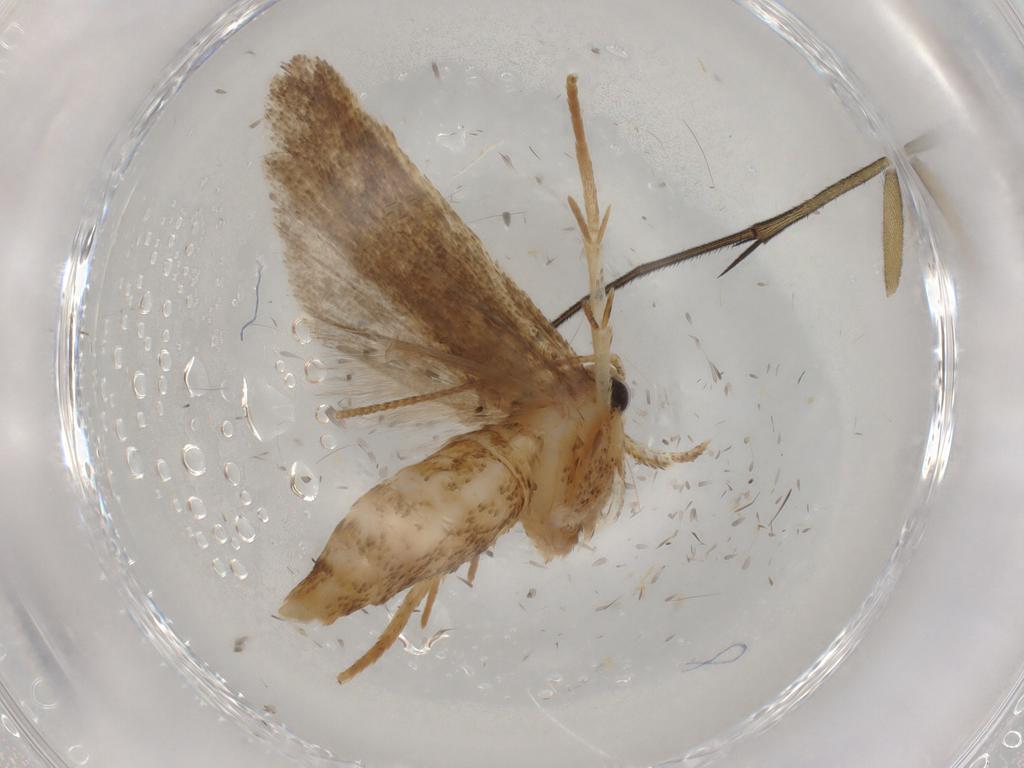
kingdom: Animalia
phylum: Arthropoda
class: Insecta
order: Lepidoptera
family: Autostichidae
